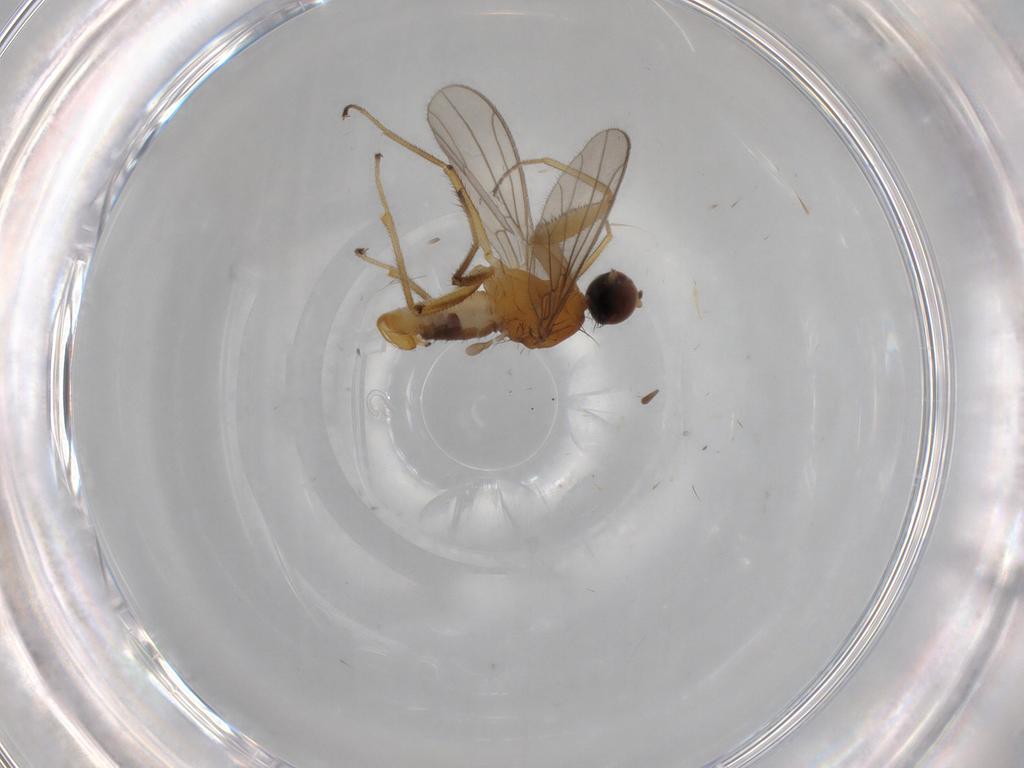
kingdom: Animalia
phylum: Arthropoda
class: Insecta
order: Diptera
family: Empididae
